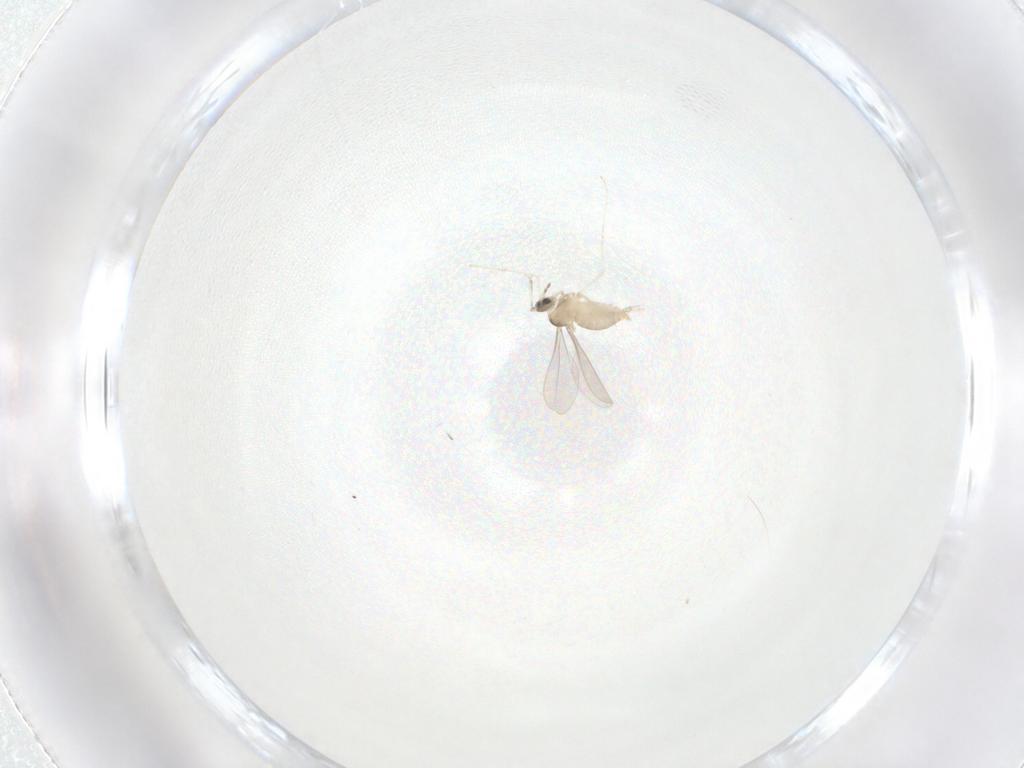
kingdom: Animalia
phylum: Arthropoda
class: Insecta
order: Diptera
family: Cecidomyiidae
